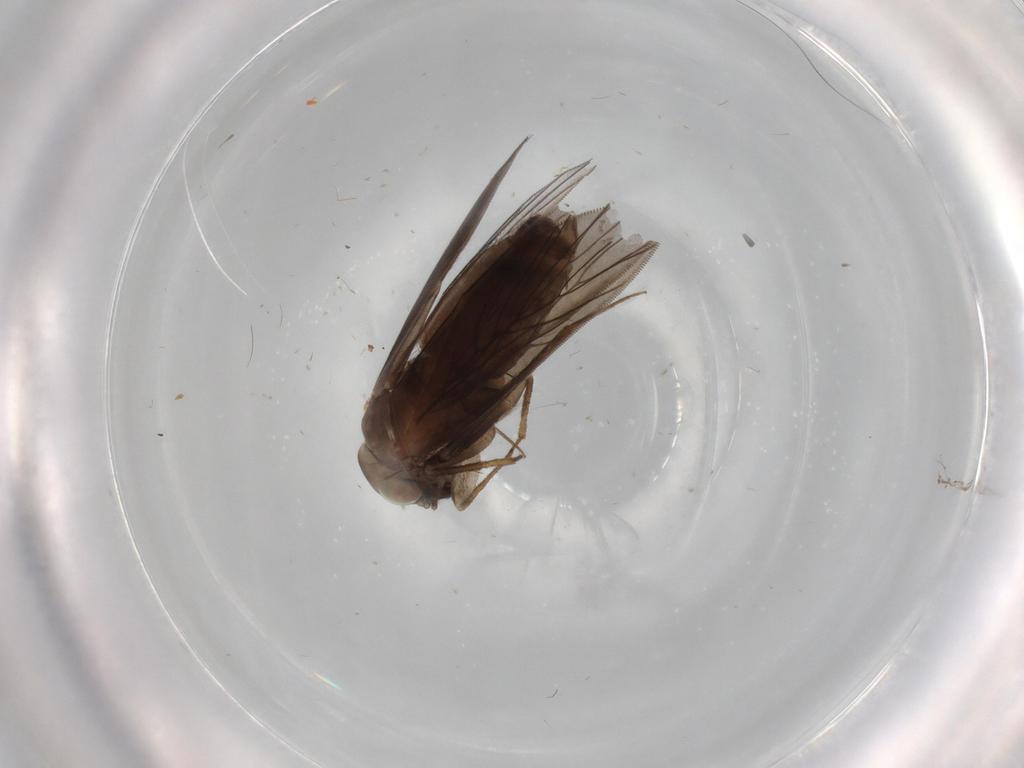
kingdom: Animalia
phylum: Arthropoda
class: Insecta
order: Psocodea
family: Lepidopsocidae
